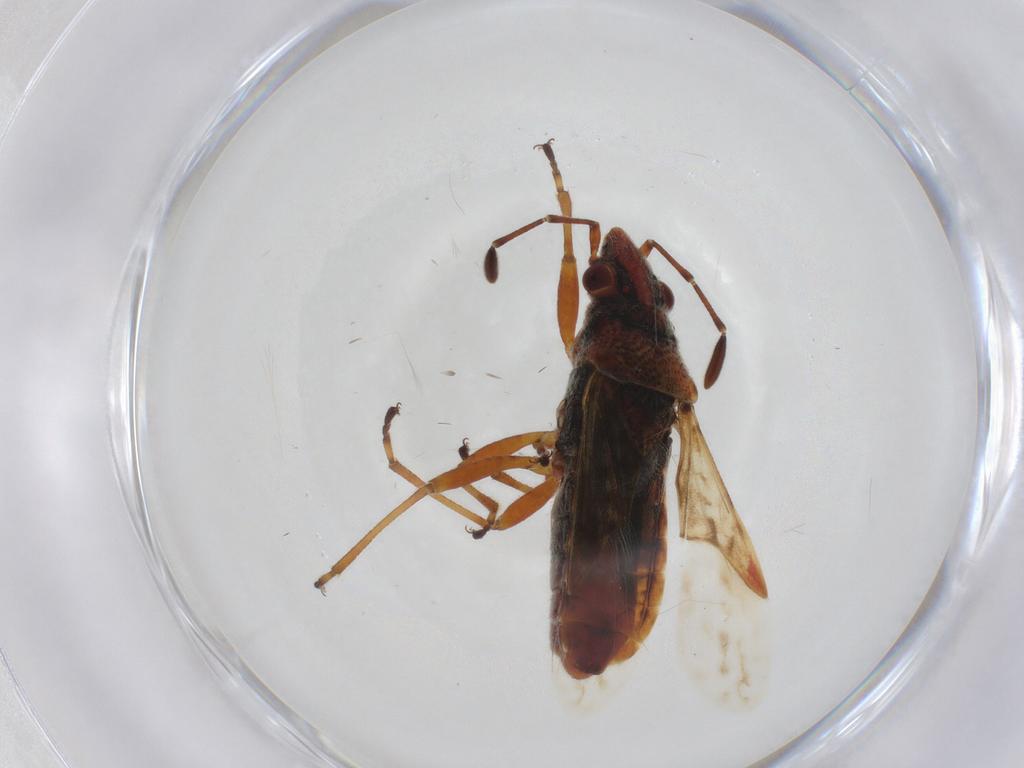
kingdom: Animalia
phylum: Arthropoda
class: Insecta
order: Hemiptera
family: Lygaeidae
